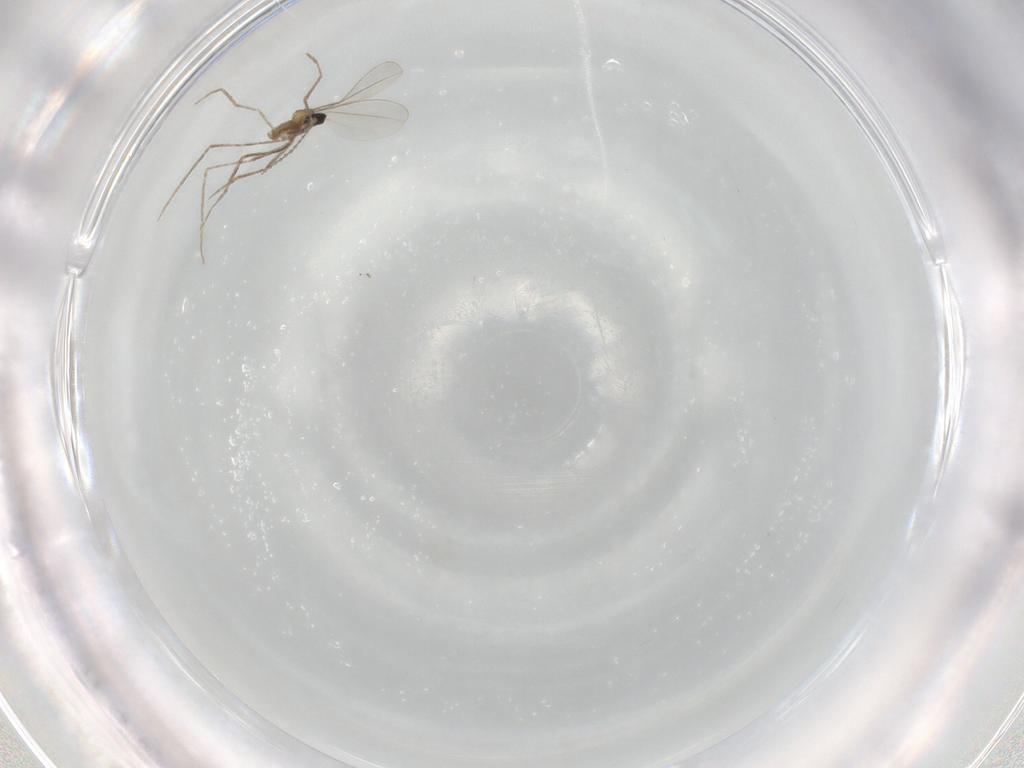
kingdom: Animalia
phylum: Arthropoda
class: Insecta
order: Diptera
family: Cecidomyiidae
